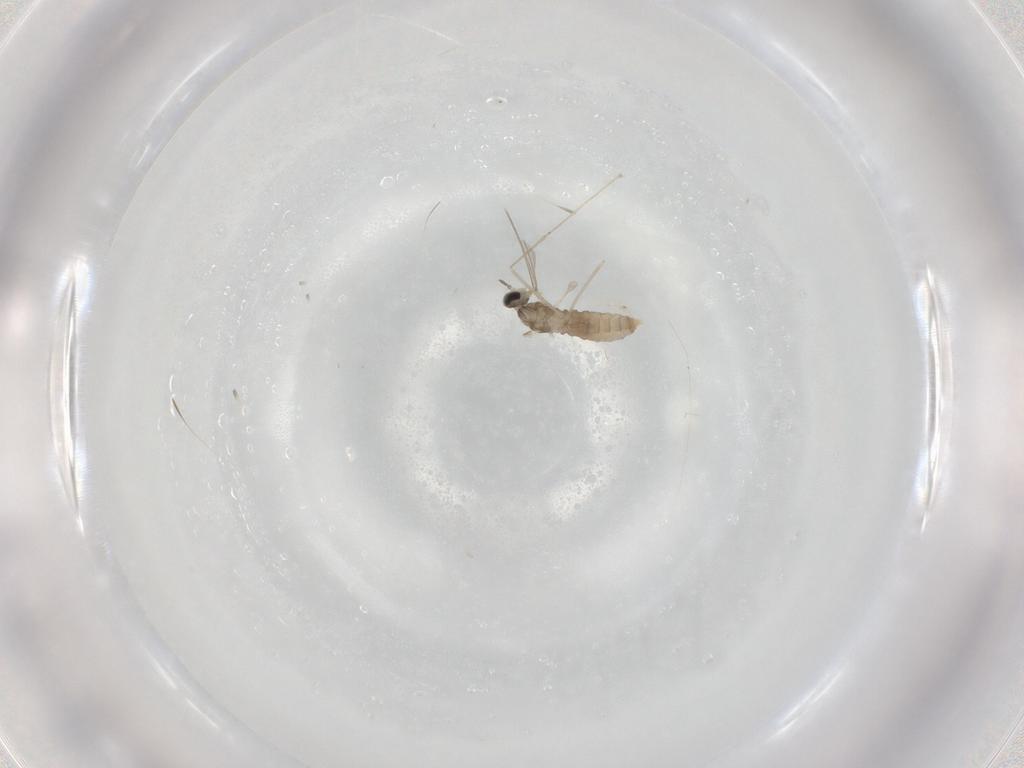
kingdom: Animalia
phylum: Arthropoda
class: Insecta
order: Diptera
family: Cecidomyiidae
